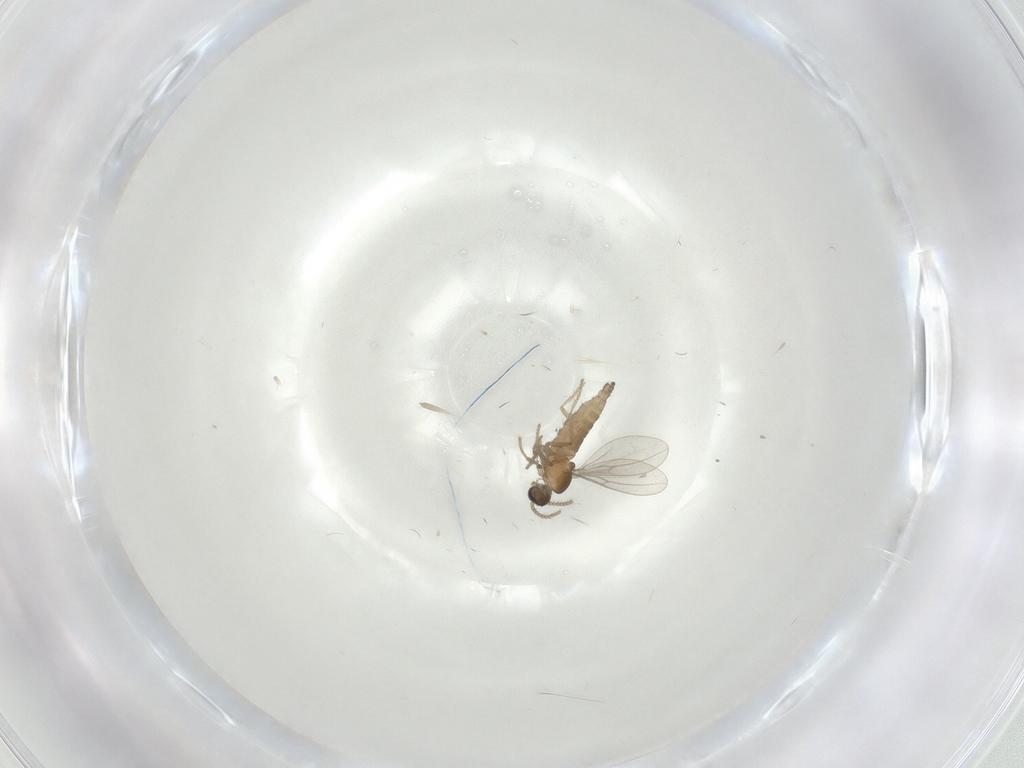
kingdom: Animalia
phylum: Arthropoda
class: Insecta
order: Diptera
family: Cecidomyiidae
